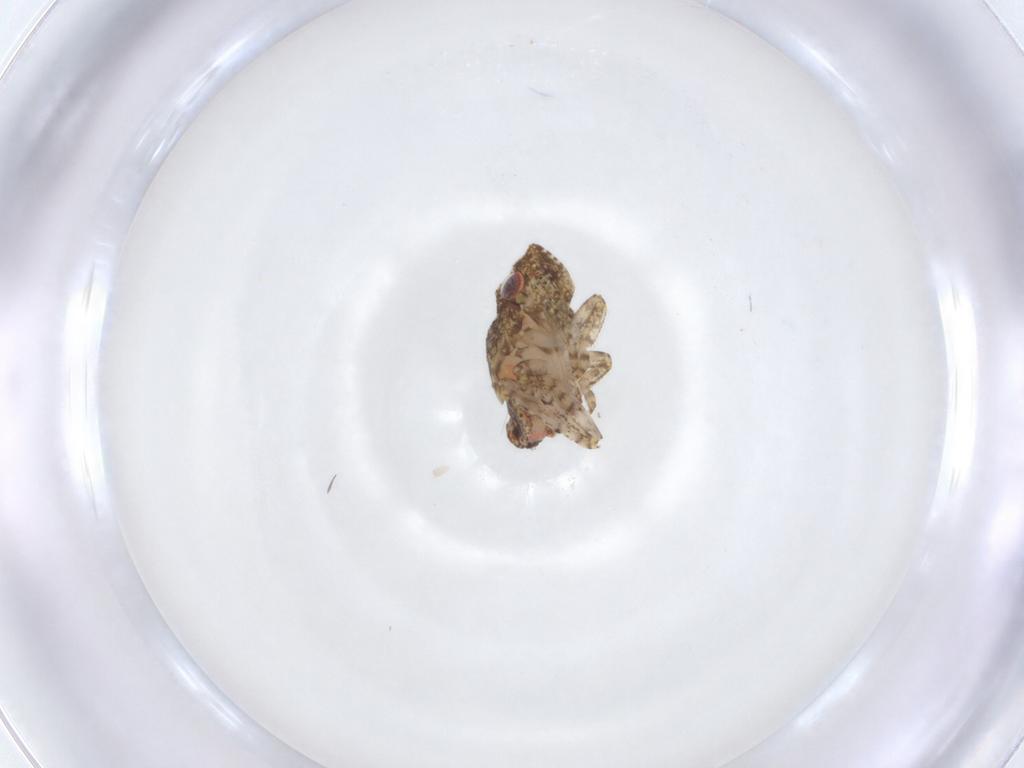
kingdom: Animalia
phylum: Arthropoda
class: Insecta
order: Hemiptera
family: Nogodinidae
